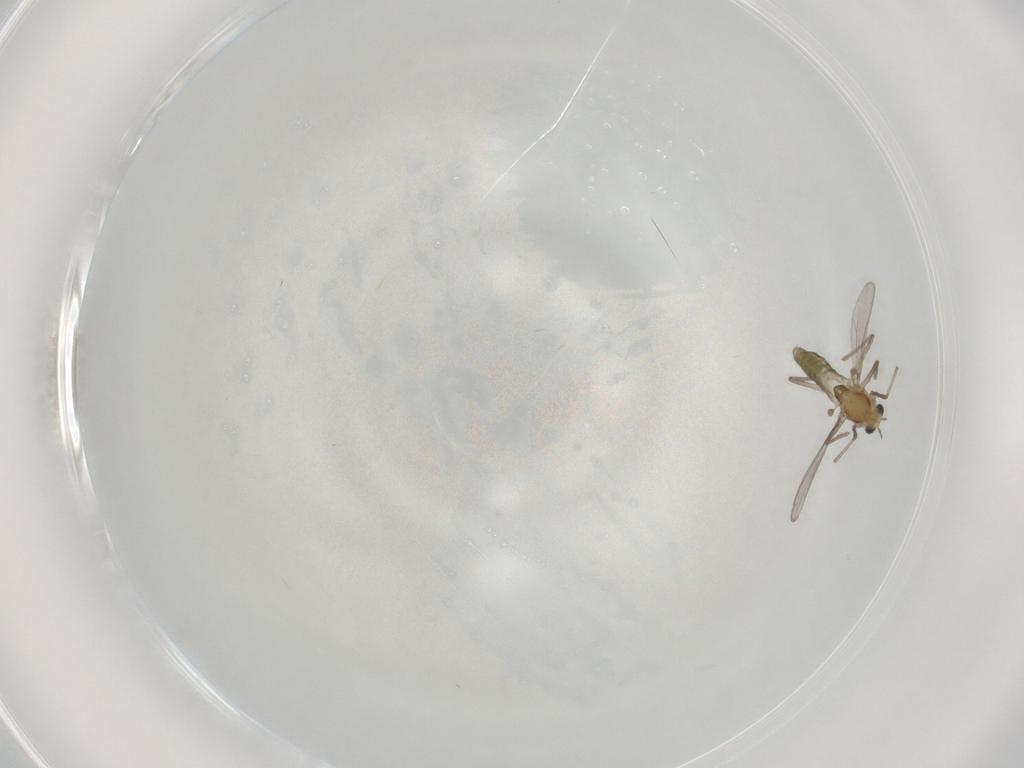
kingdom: Animalia
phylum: Arthropoda
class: Insecta
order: Diptera
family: Chironomidae
